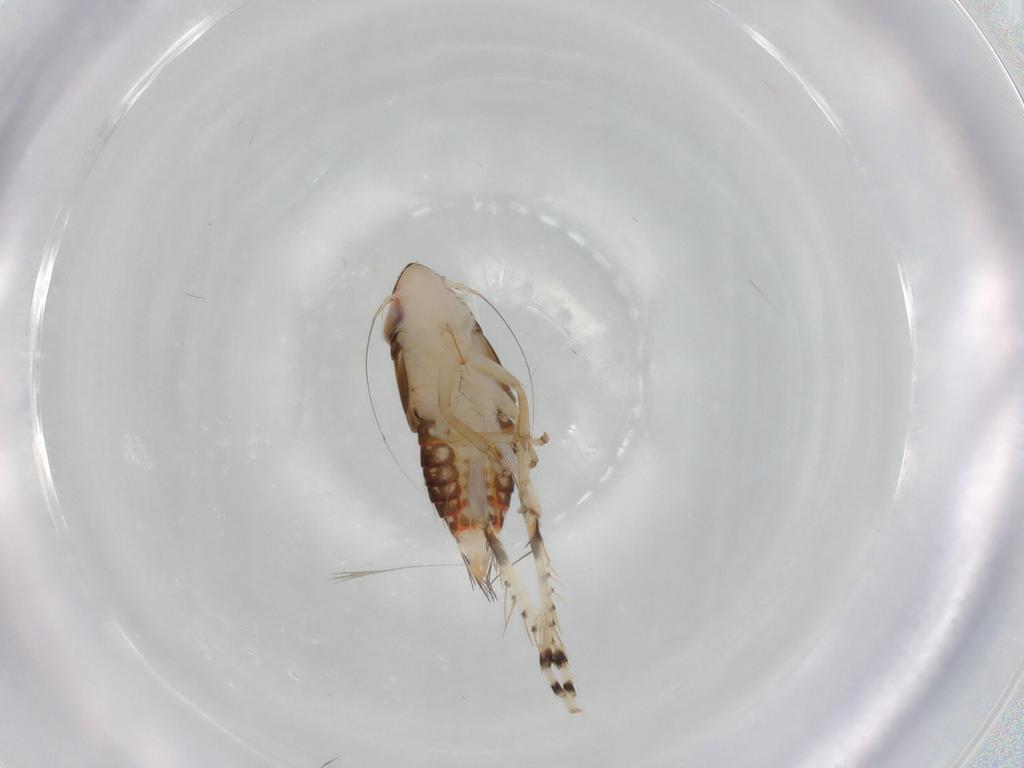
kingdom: Animalia
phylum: Arthropoda
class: Insecta
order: Hemiptera
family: Cicadellidae
